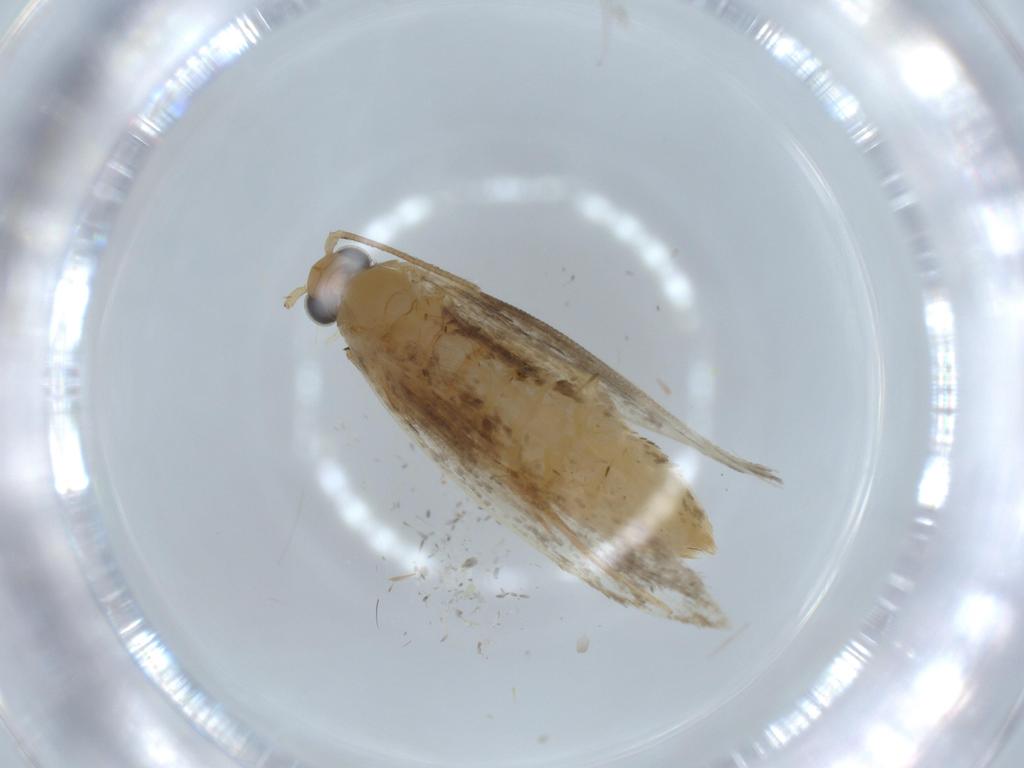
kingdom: Animalia
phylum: Arthropoda
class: Insecta
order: Lepidoptera
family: Tineidae
